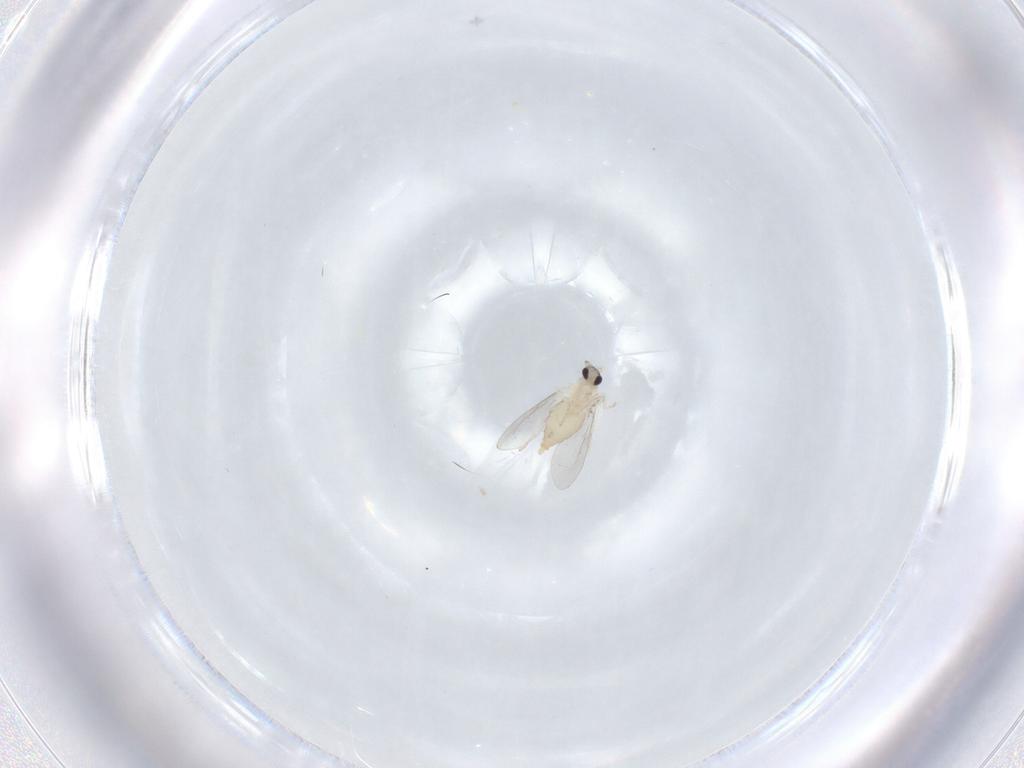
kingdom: Animalia
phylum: Arthropoda
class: Insecta
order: Diptera
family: Cecidomyiidae
